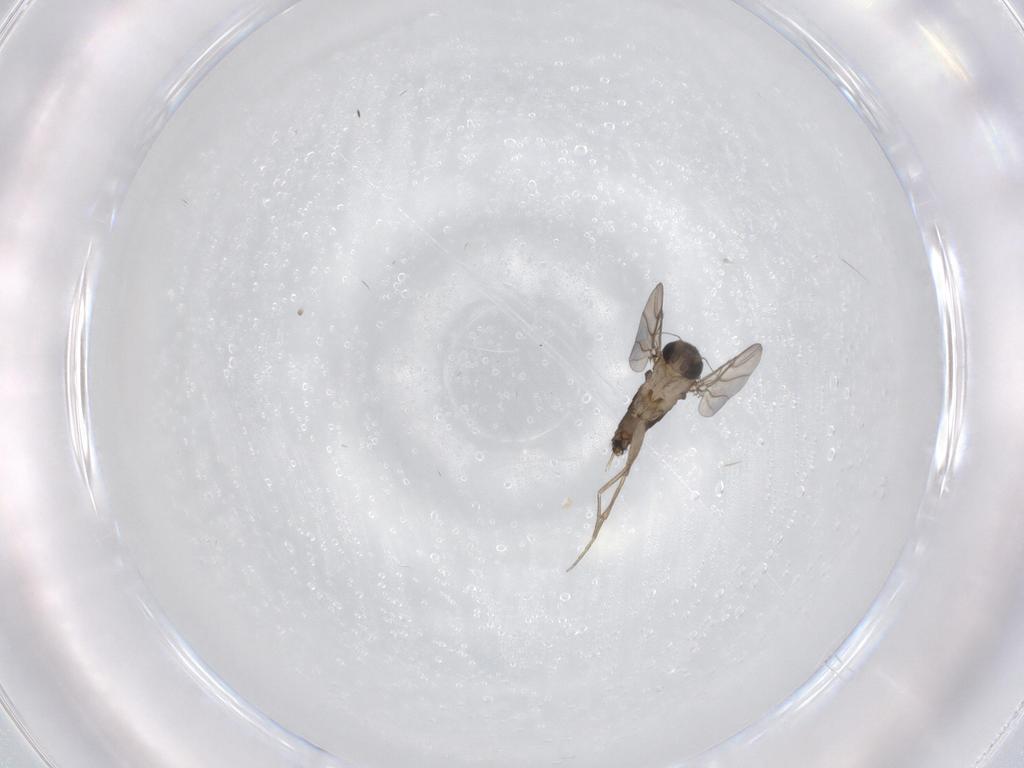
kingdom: Animalia
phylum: Arthropoda
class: Insecta
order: Diptera
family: Phoridae
